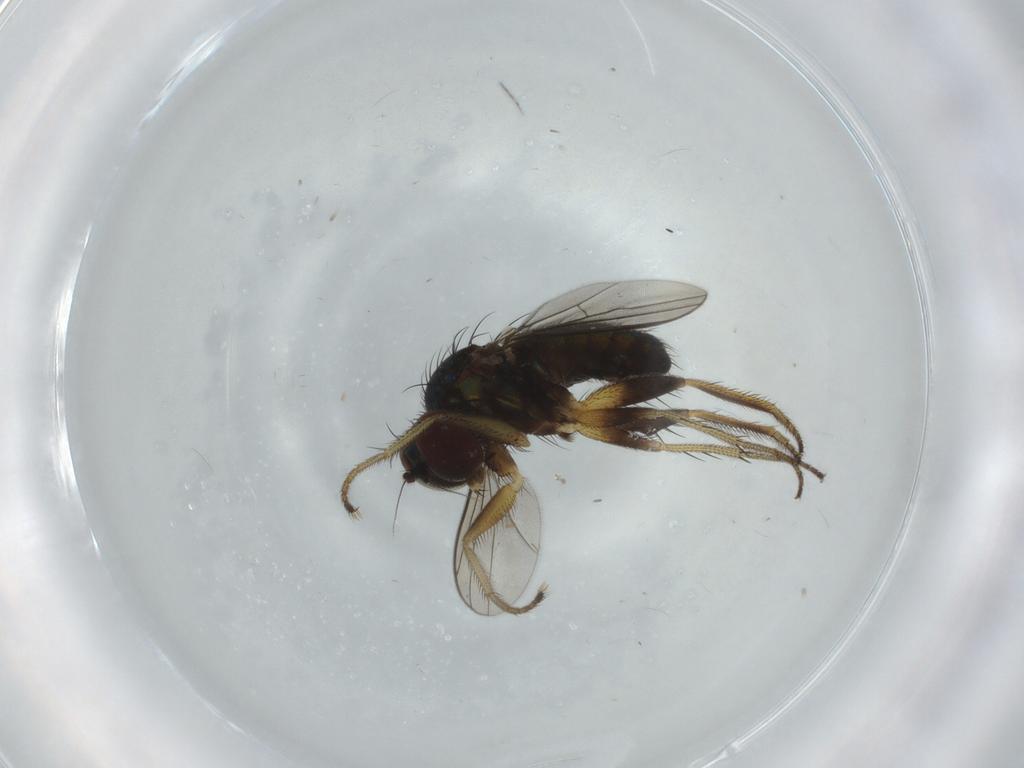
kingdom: Animalia
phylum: Arthropoda
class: Insecta
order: Diptera
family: Dolichopodidae
